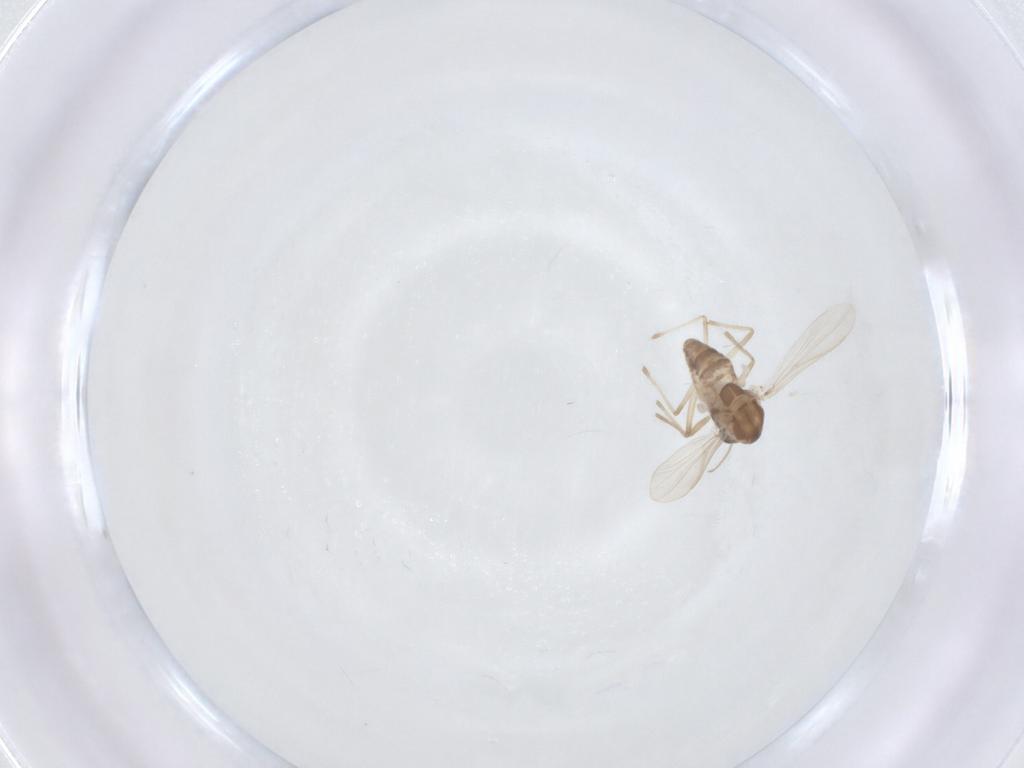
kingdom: Animalia
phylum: Arthropoda
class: Insecta
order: Diptera
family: Chironomidae
